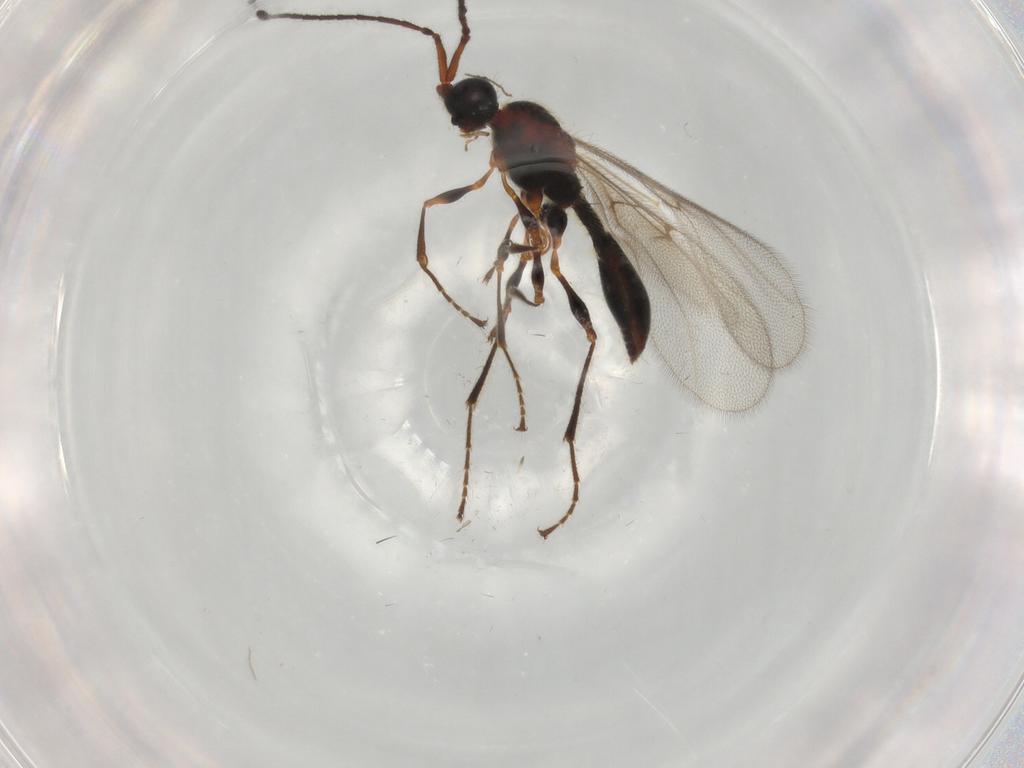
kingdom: Animalia
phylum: Arthropoda
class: Insecta
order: Hymenoptera
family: Diapriidae
